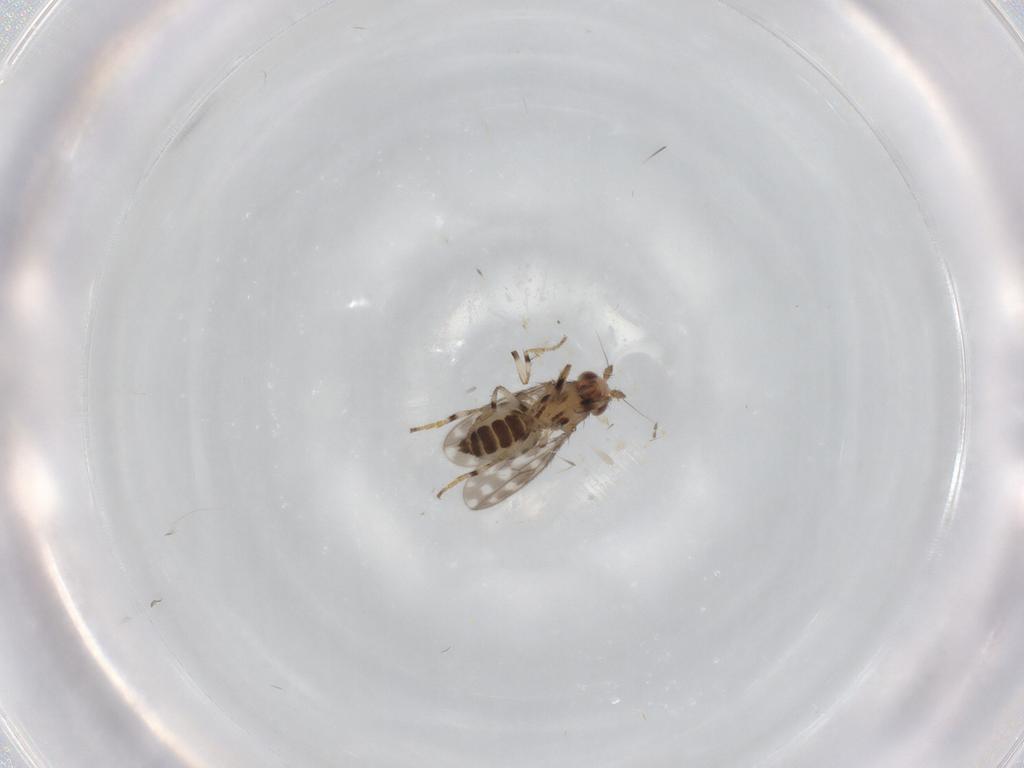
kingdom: Animalia
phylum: Arthropoda
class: Insecta
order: Diptera
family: Sphaeroceridae
